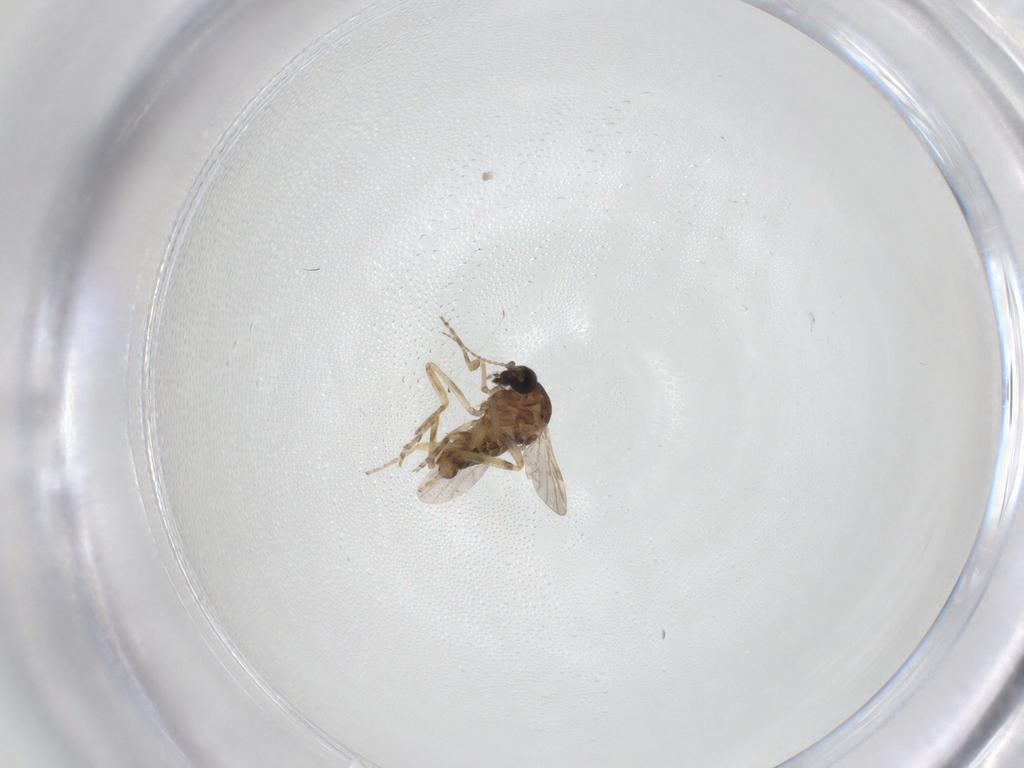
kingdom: Animalia
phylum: Arthropoda
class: Insecta
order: Diptera
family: Ceratopogonidae
